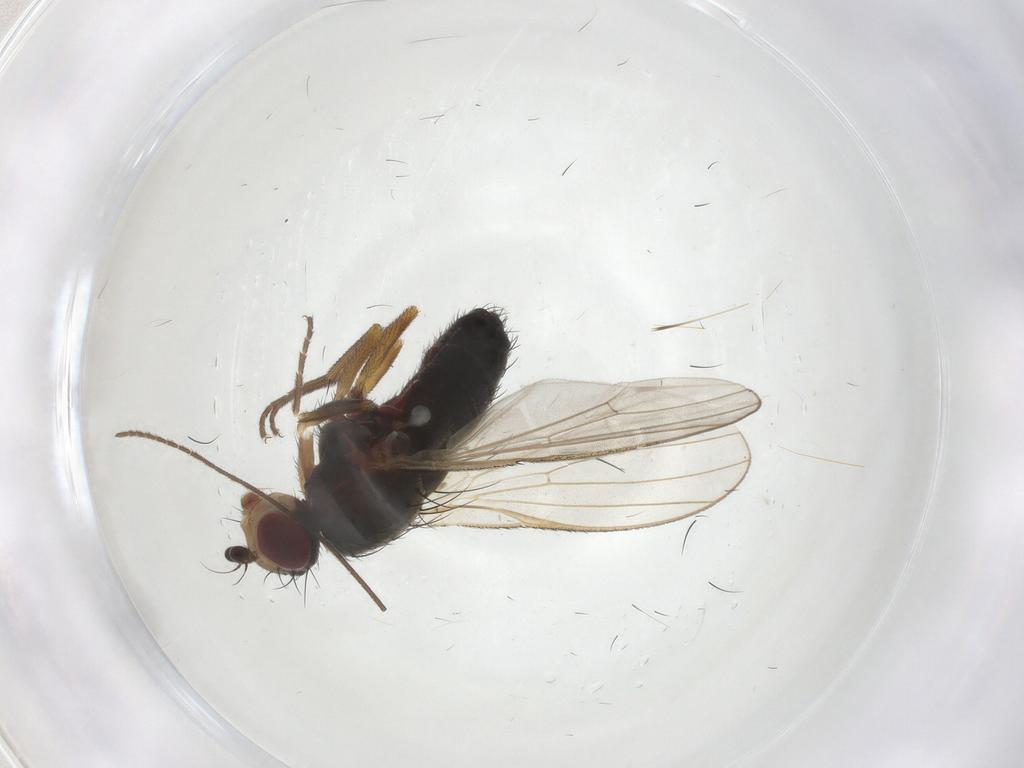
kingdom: Animalia
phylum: Arthropoda
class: Insecta
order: Diptera
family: Heleomyzidae
